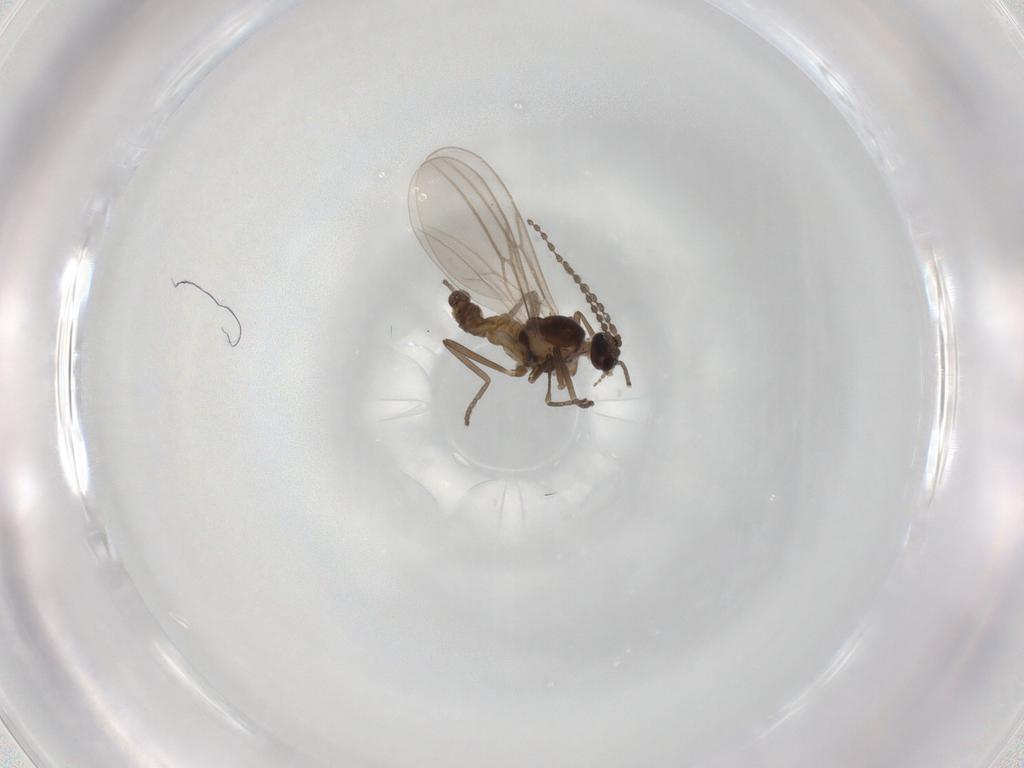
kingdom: Animalia
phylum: Arthropoda
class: Insecta
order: Diptera
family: Cecidomyiidae
